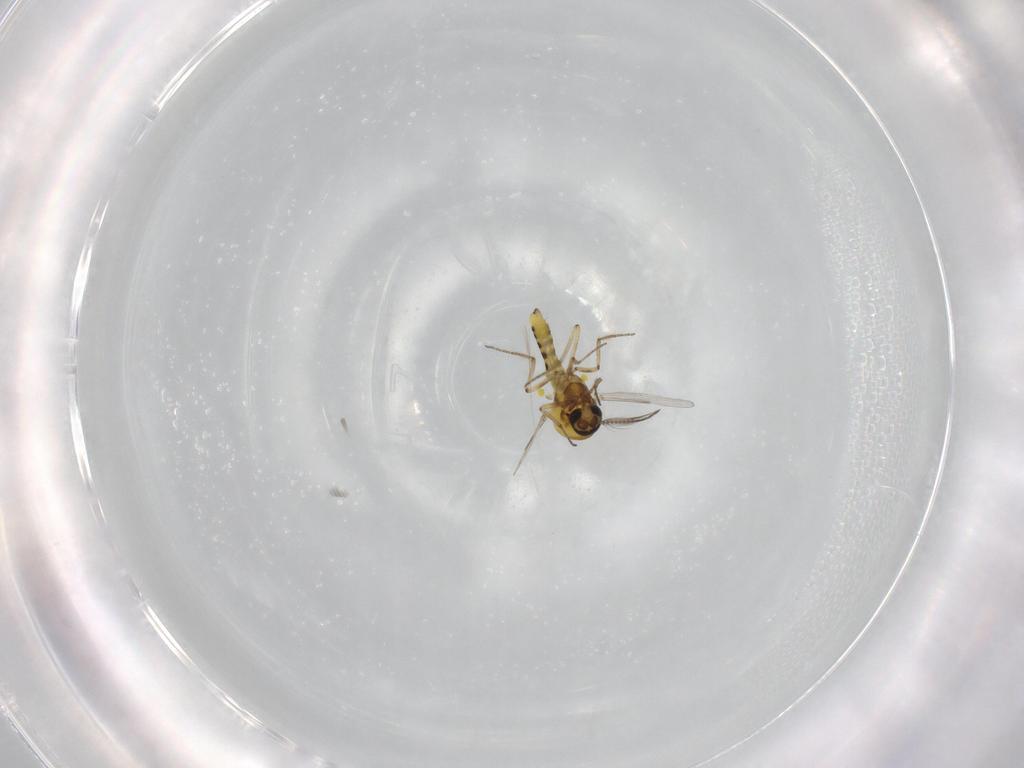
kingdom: Animalia
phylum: Arthropoda
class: Insecta
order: Diptera
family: Ceratopogonidae
